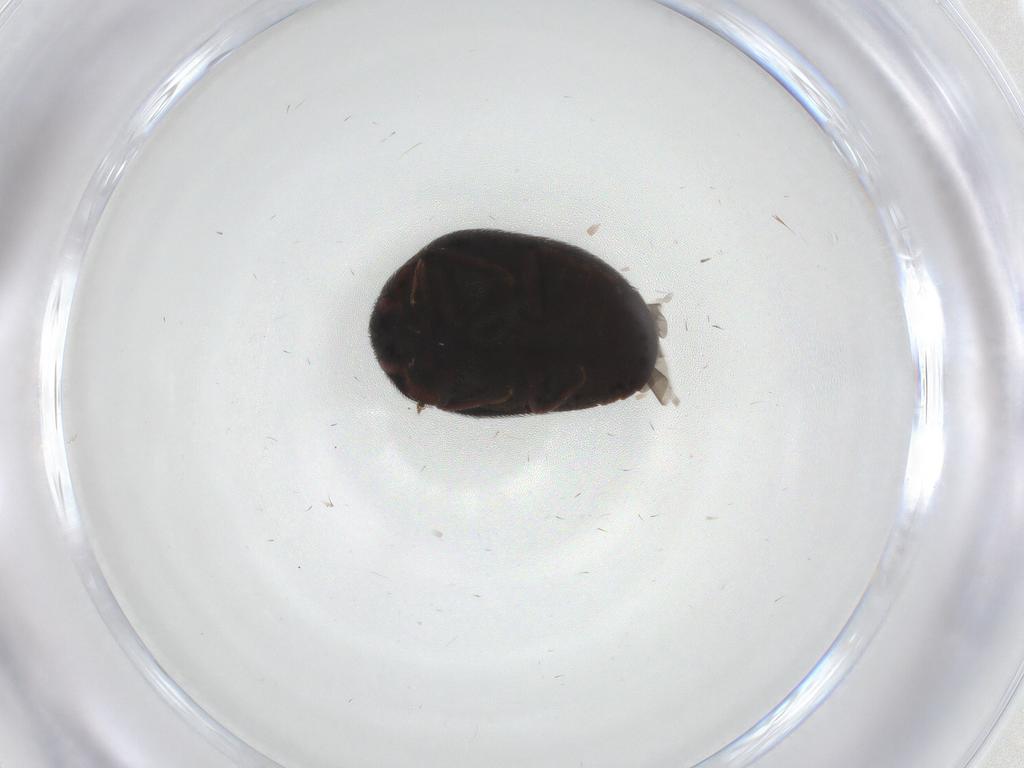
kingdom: Animalia
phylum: Arthropoda
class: Insecta
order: Coleoptera
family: Dermestidae
